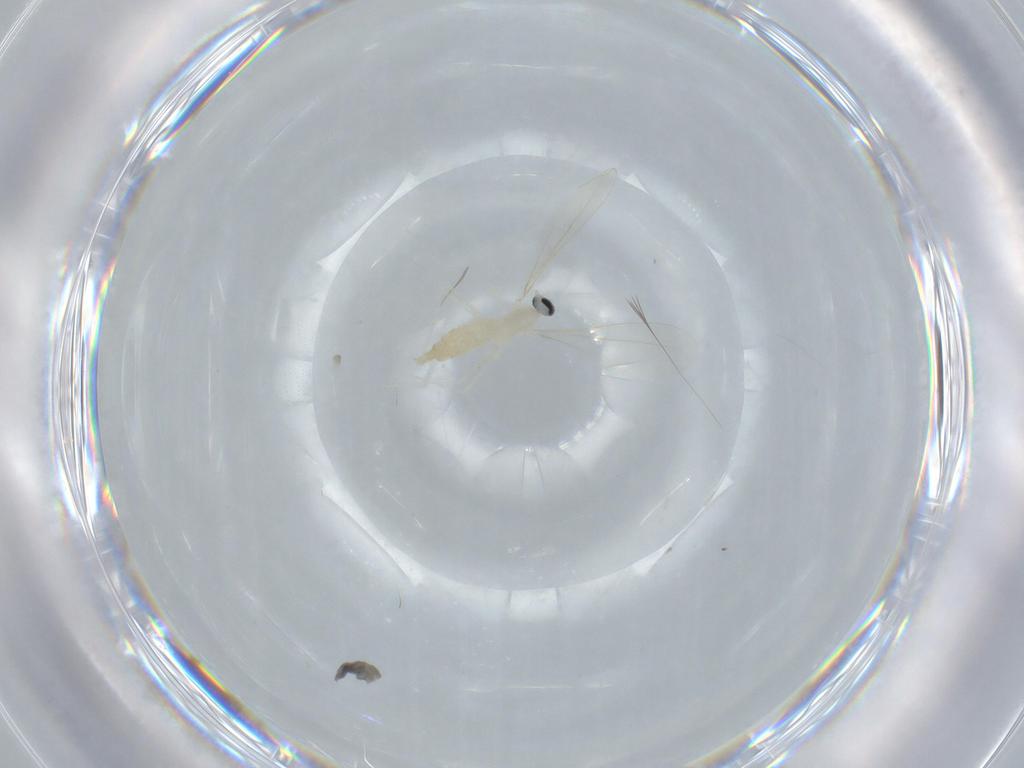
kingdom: Animalia
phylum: Arthropoda
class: Insecta
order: Diptera
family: Cecidomyiidae
